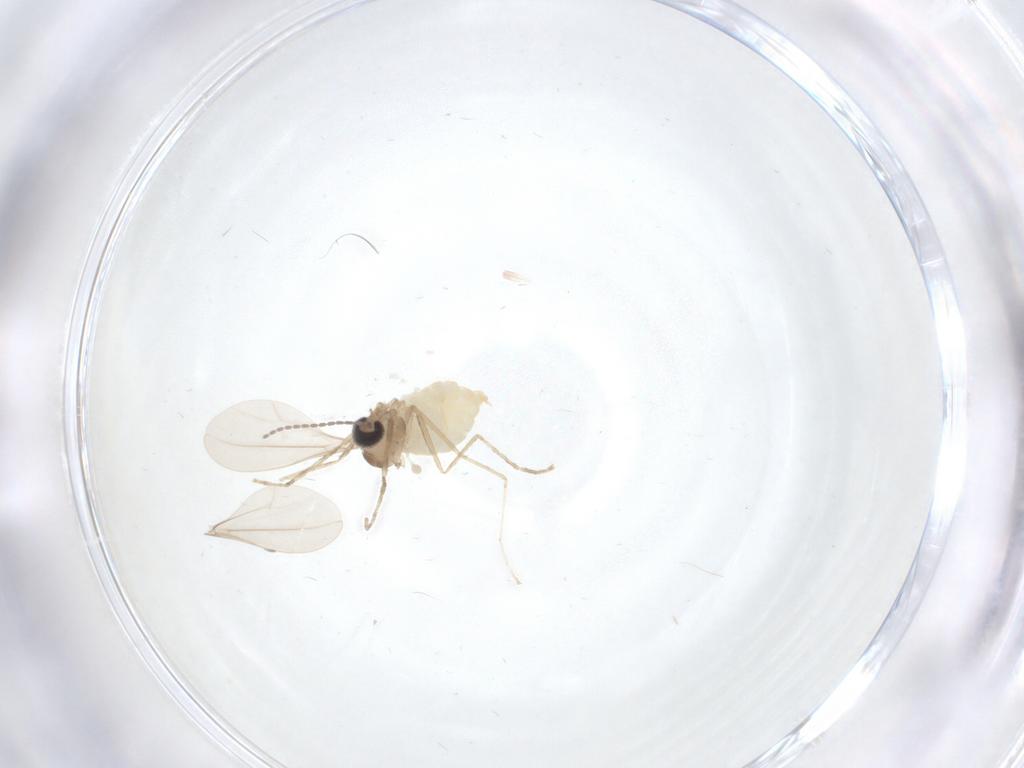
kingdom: Animalia
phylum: Arthropoda
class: Insecta
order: Diptera
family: Cecidomyiidae
